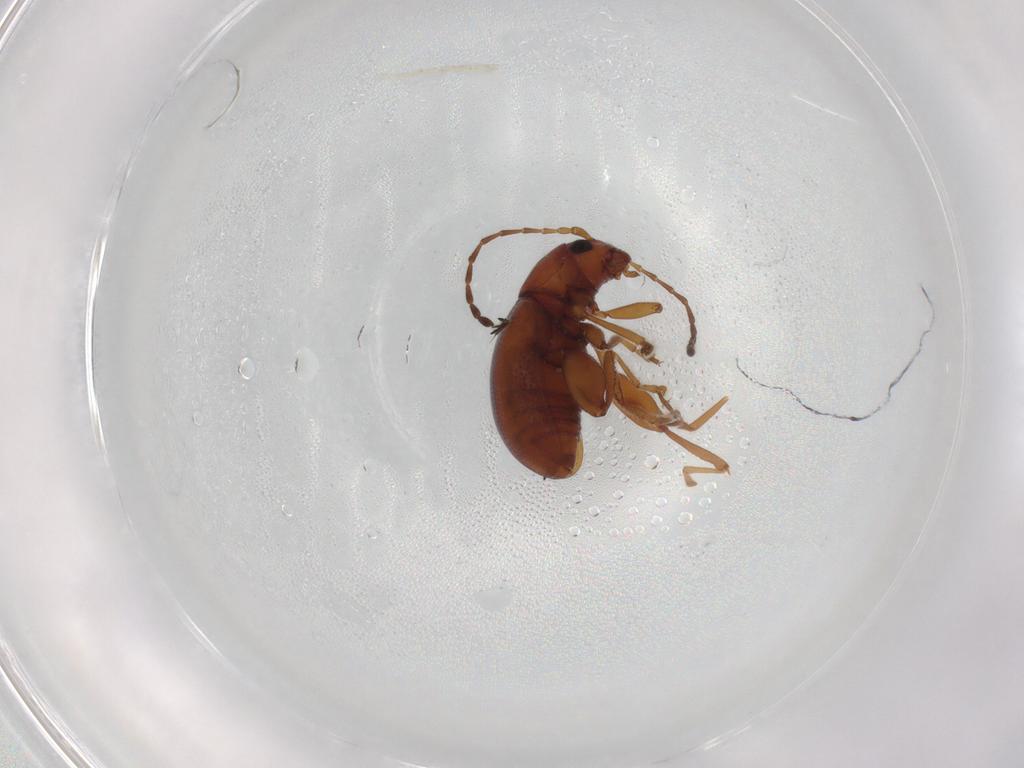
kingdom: Animalia
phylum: Arthropoda
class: Insecta
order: Coleoptera
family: Chrysomelidae
